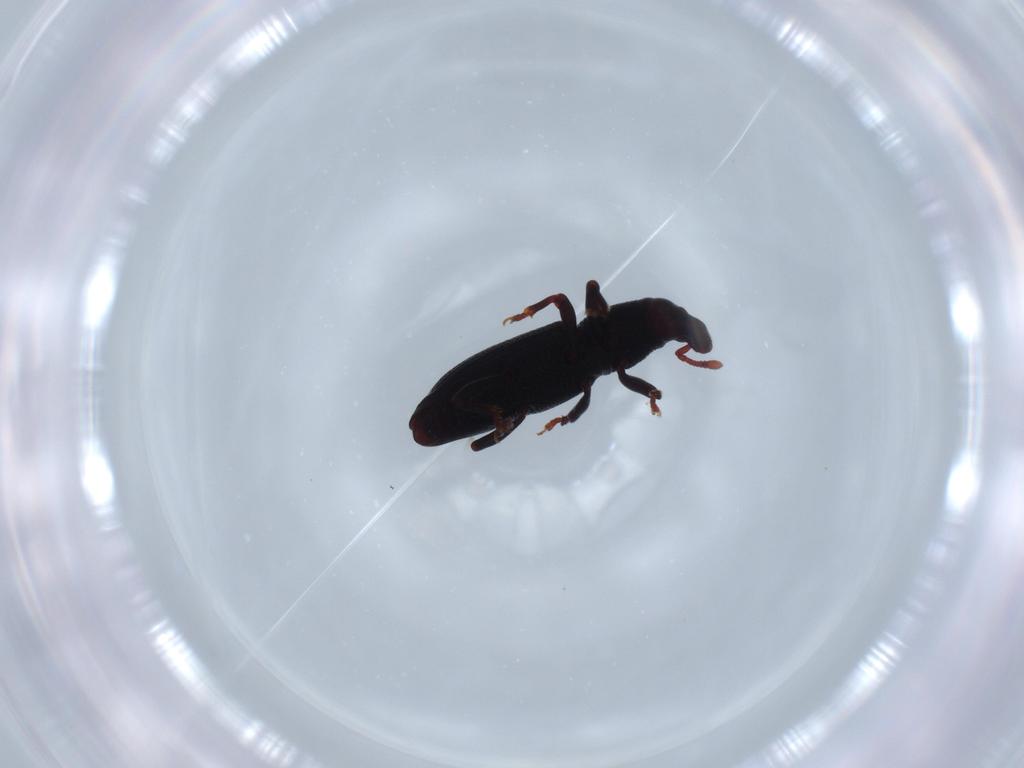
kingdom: Animalia
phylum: Arthropoda
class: Insecta
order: Coleoptera
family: Curculionidae
